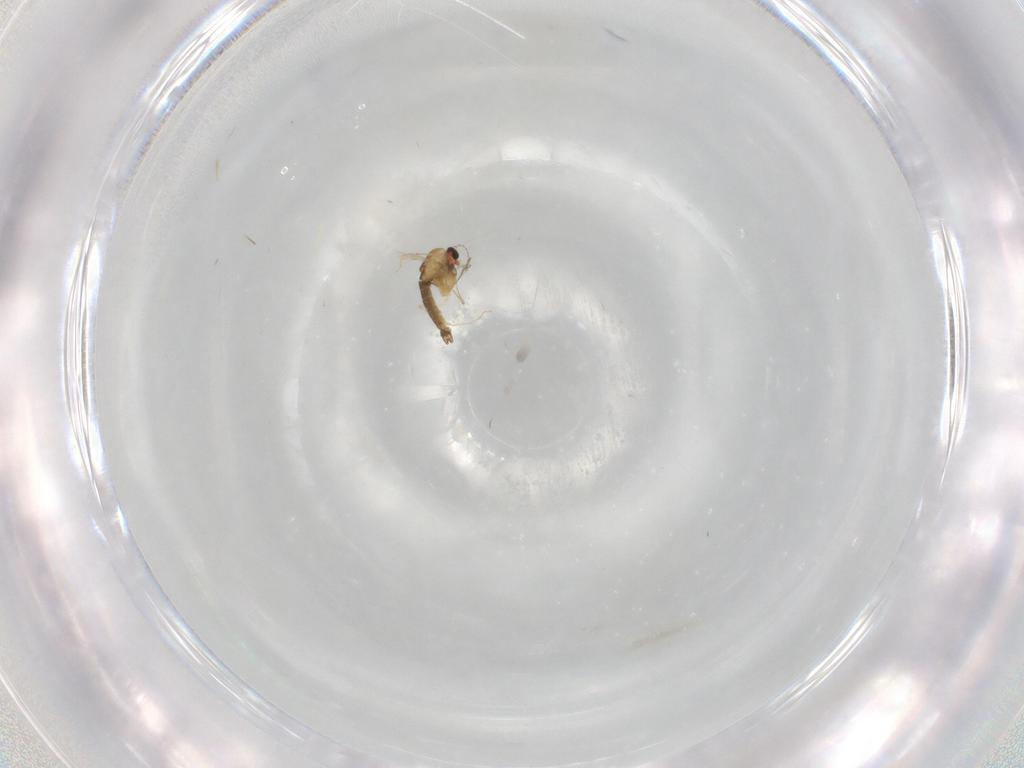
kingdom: Animalia
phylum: Arthropoda
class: Insecta
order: Diptera
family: Chironomidae
